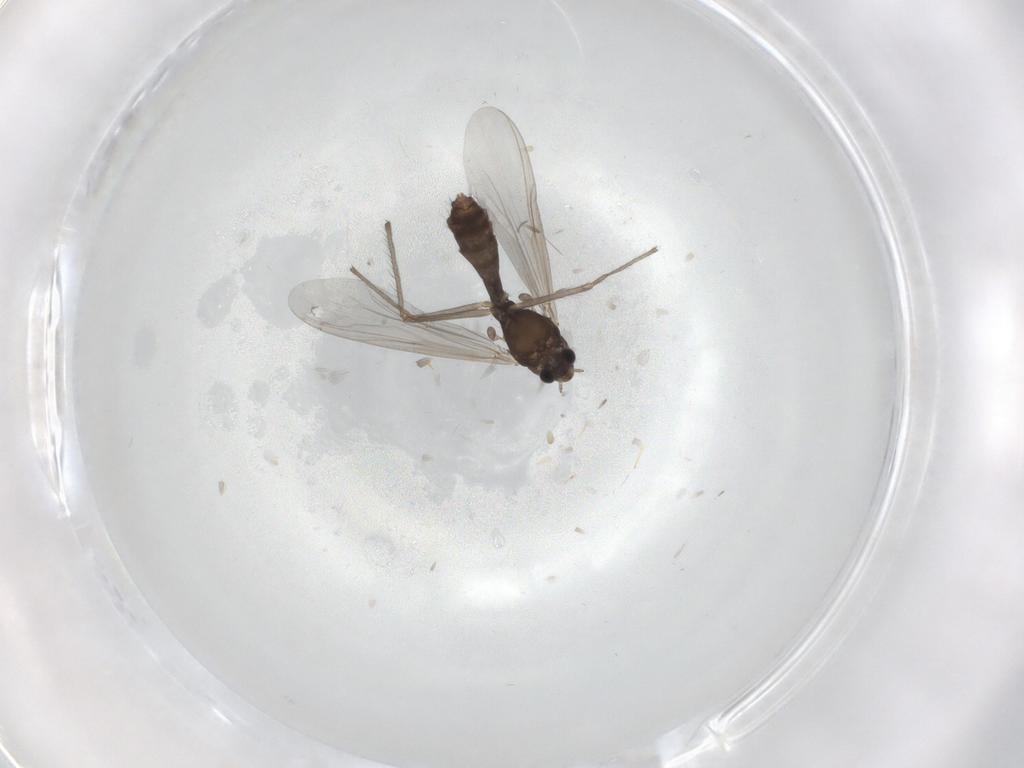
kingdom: Animalia
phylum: Arthropoda
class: Insecta
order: Diptera
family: Chironomidae
